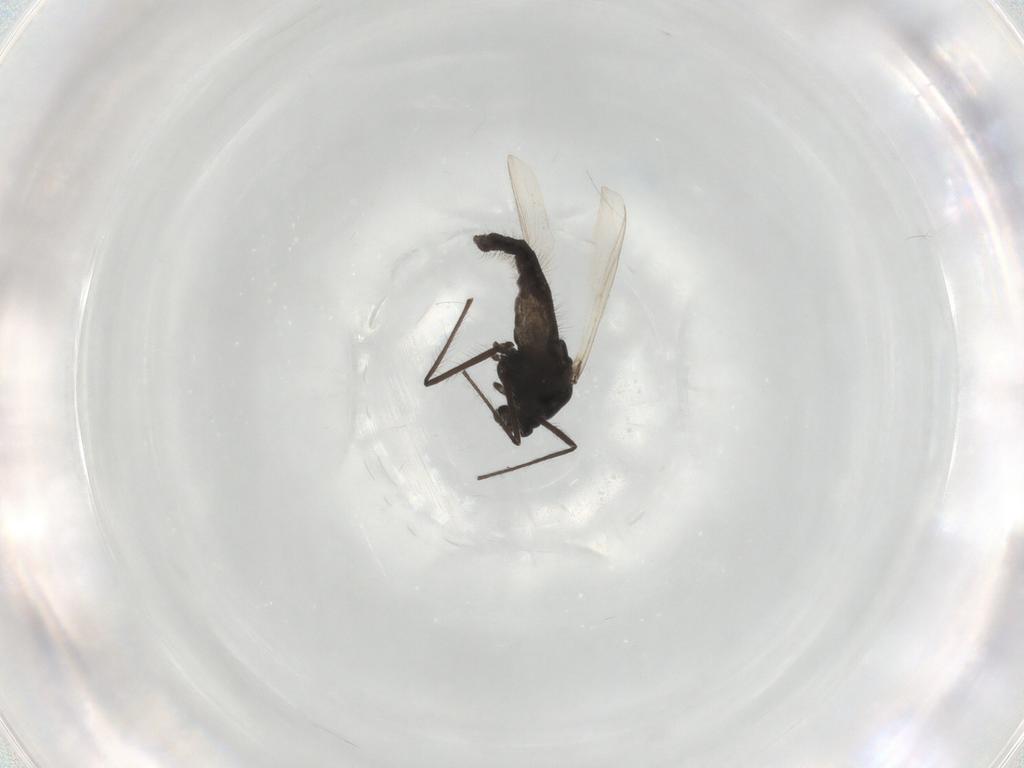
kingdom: Animalia
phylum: Arthropoda
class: Insecta
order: Diptera
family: Chironomidae
